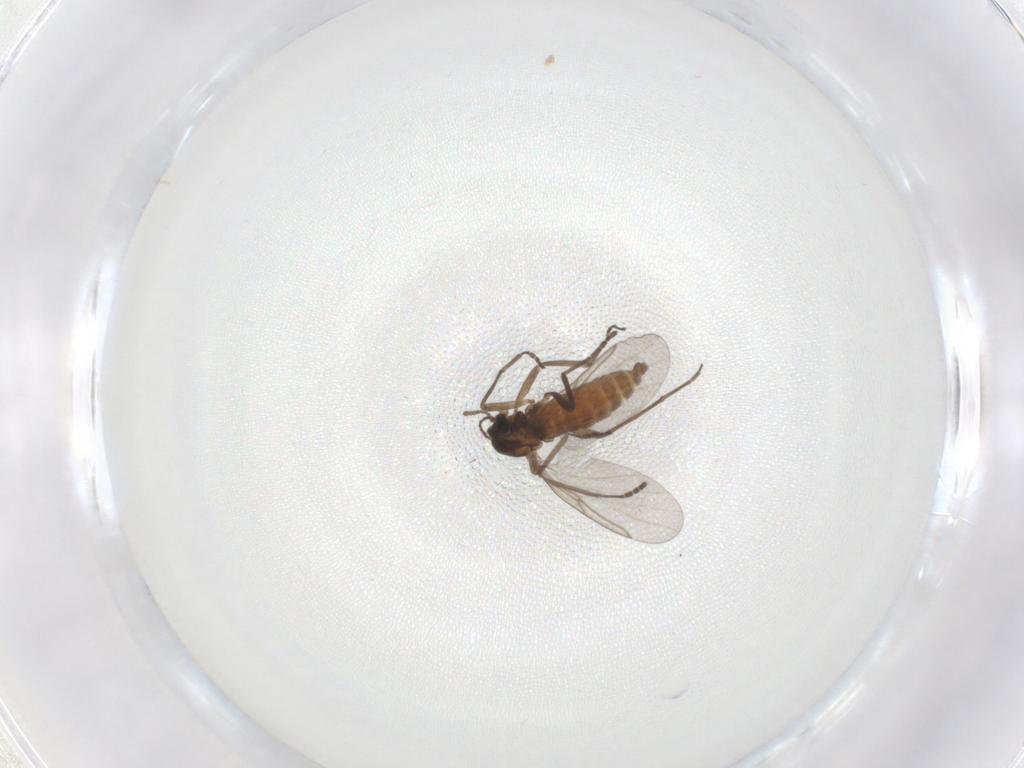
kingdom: Animalia
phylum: Arthropoda
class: Insecta
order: Diptera
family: Cecidomyiidae
